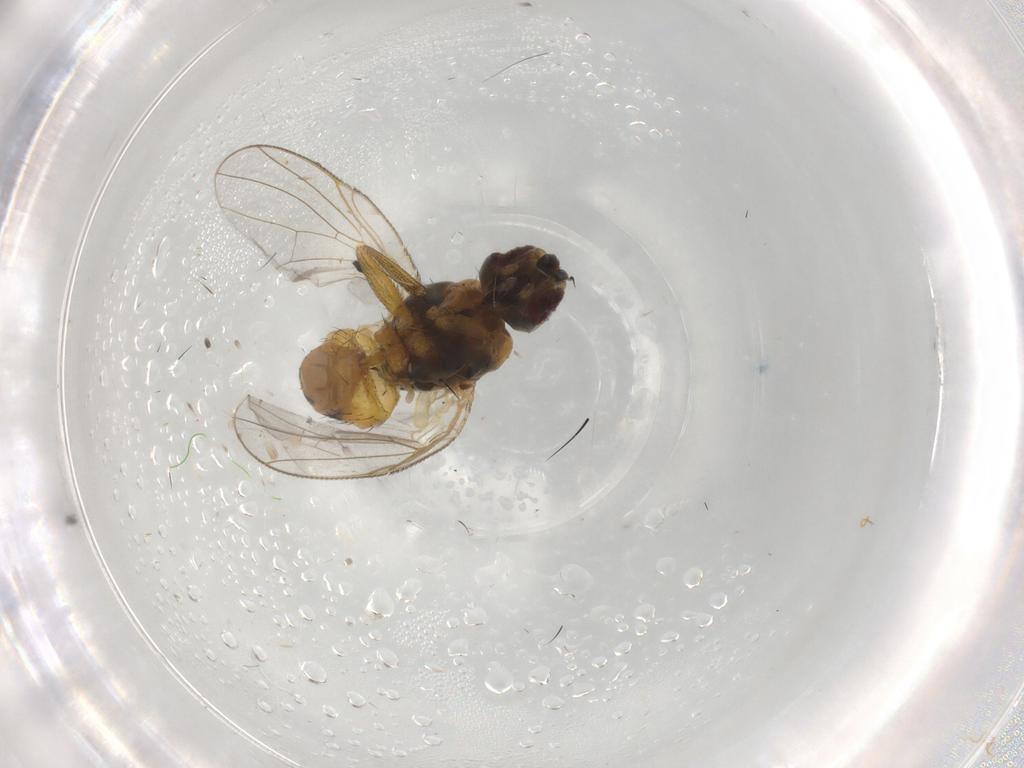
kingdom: Animalia
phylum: Arthropoda
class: Insecta
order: Diptera
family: Muscidae
